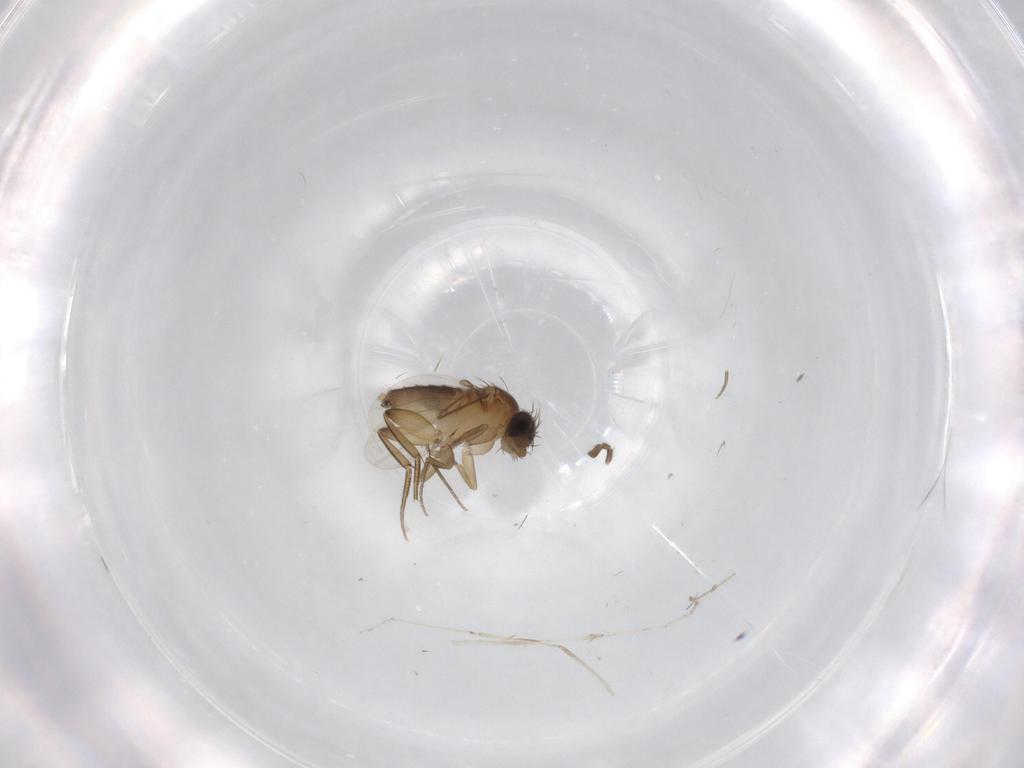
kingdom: Animalia
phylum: Arthropoda
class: Insecta
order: Diptera
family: Phoridae
